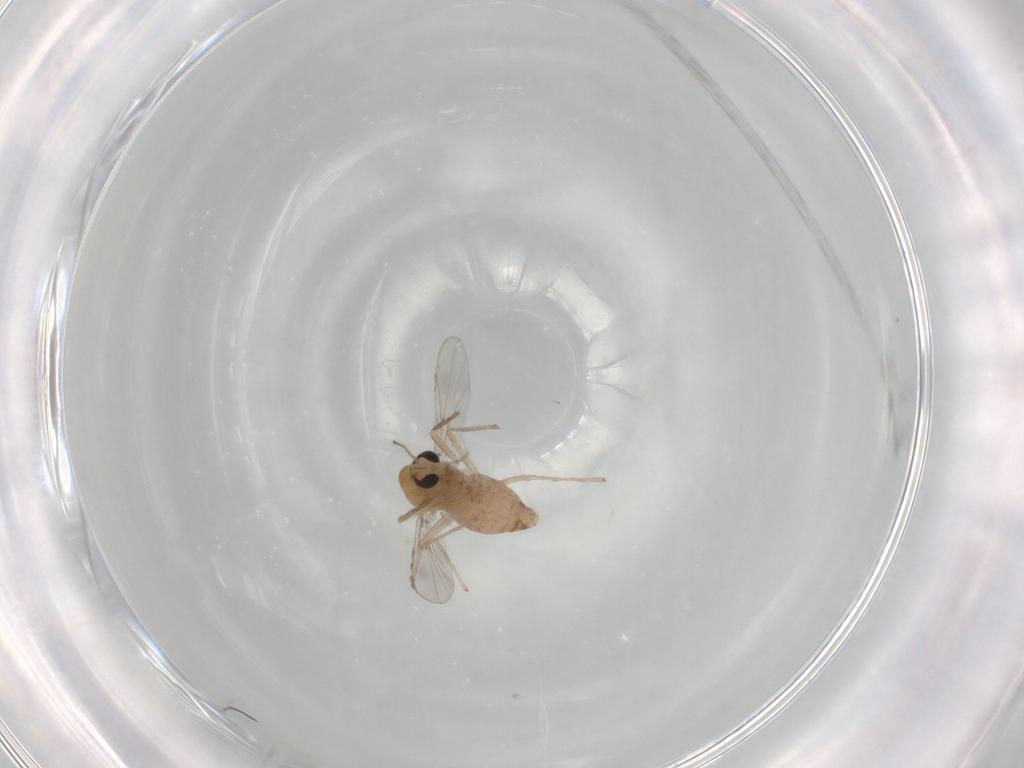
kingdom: Animalia
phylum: Arthropoda
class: Insecta
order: Diptera
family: Chironomidae
